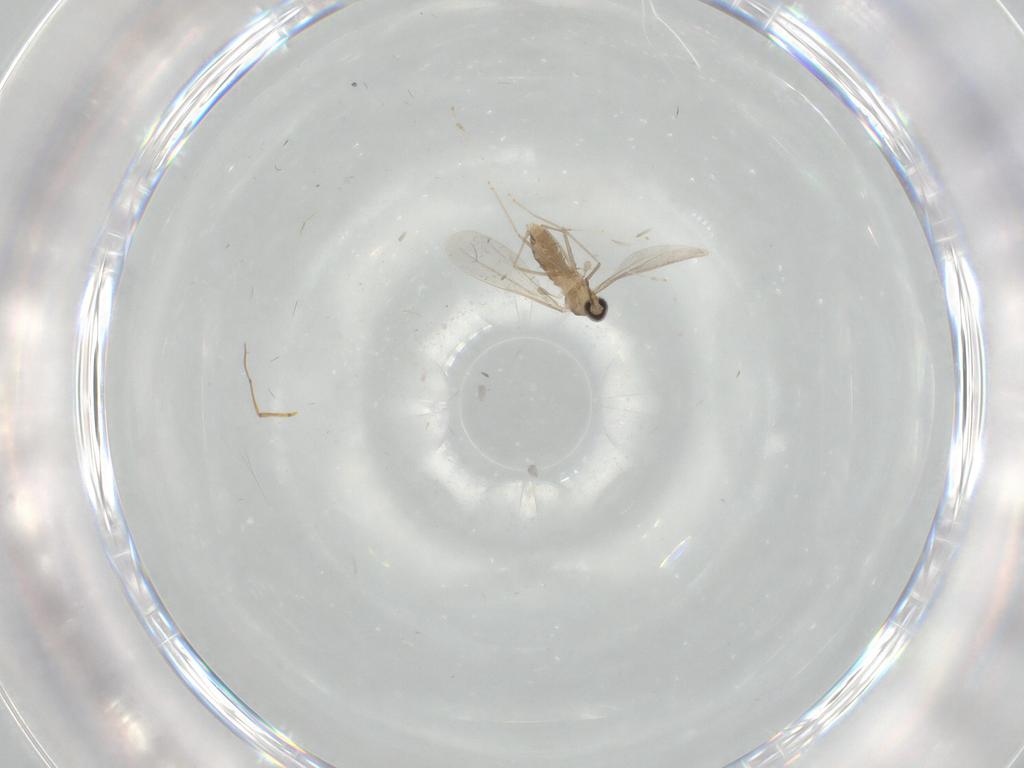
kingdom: Animalia
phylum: Arthropoda
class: Insecta
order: Diptera
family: Cecidomyiidae
